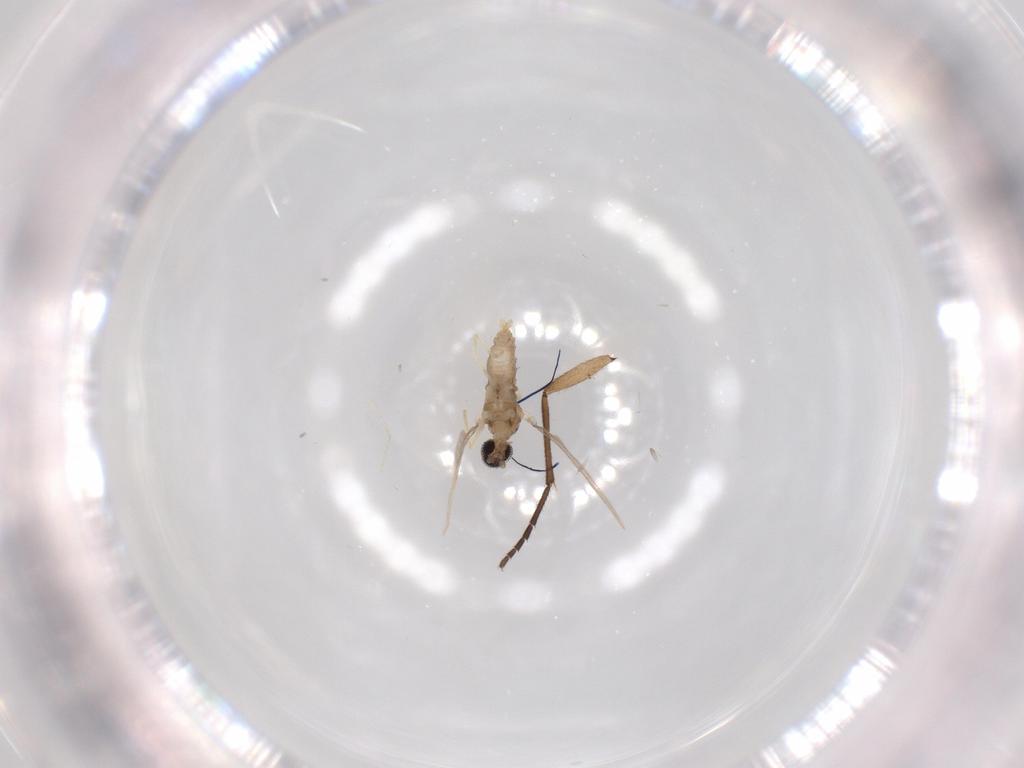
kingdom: Animalia
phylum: Arthropoda
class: Insecta
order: Diptera
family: Cecidomyiidae
